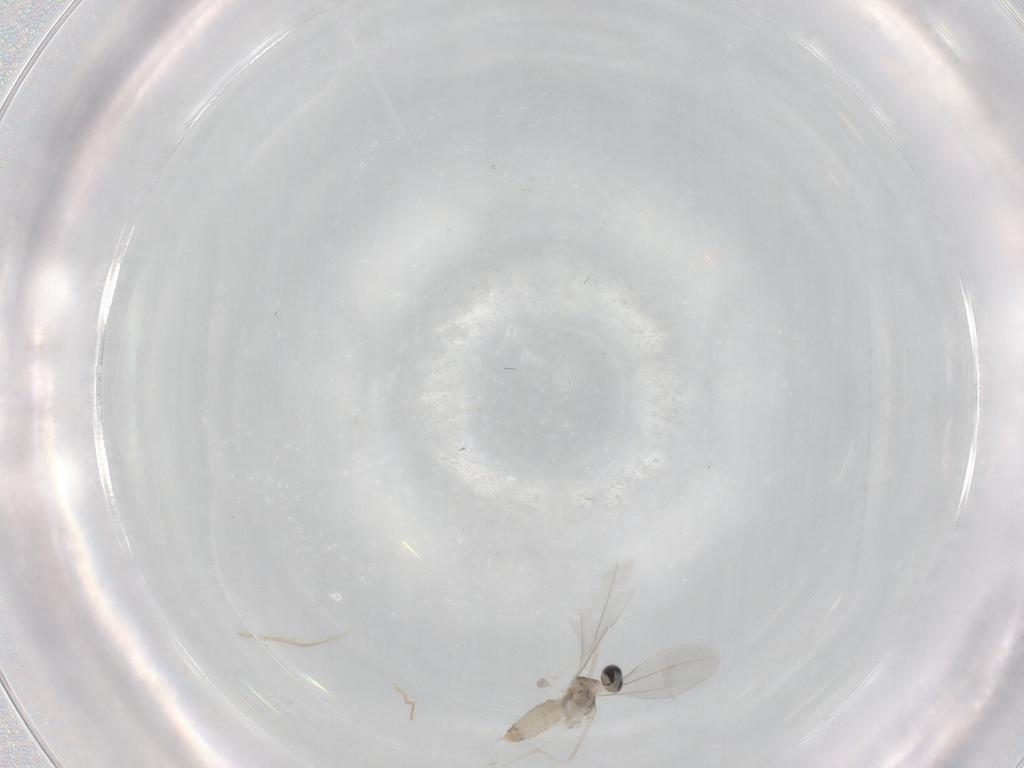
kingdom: Animalia
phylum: Arthropoda
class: Insecta
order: Diptera
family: Cecidomyiidae
